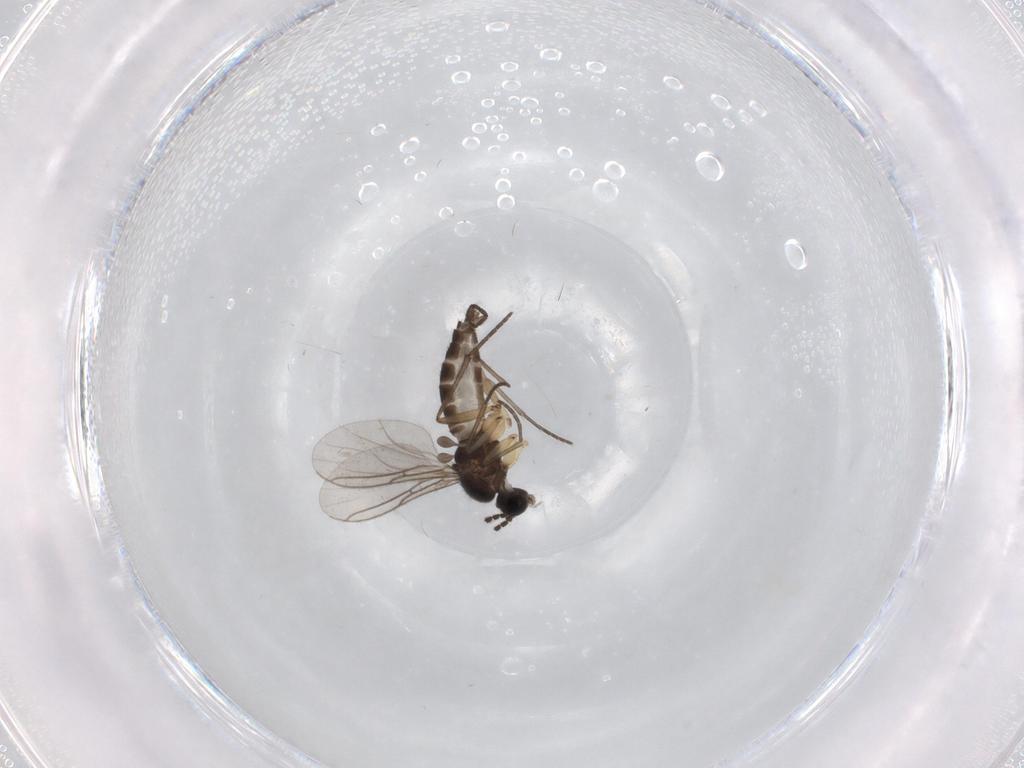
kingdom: Animalia
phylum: Arthropoda
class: Insecta
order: Diptera
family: Sciaridae
